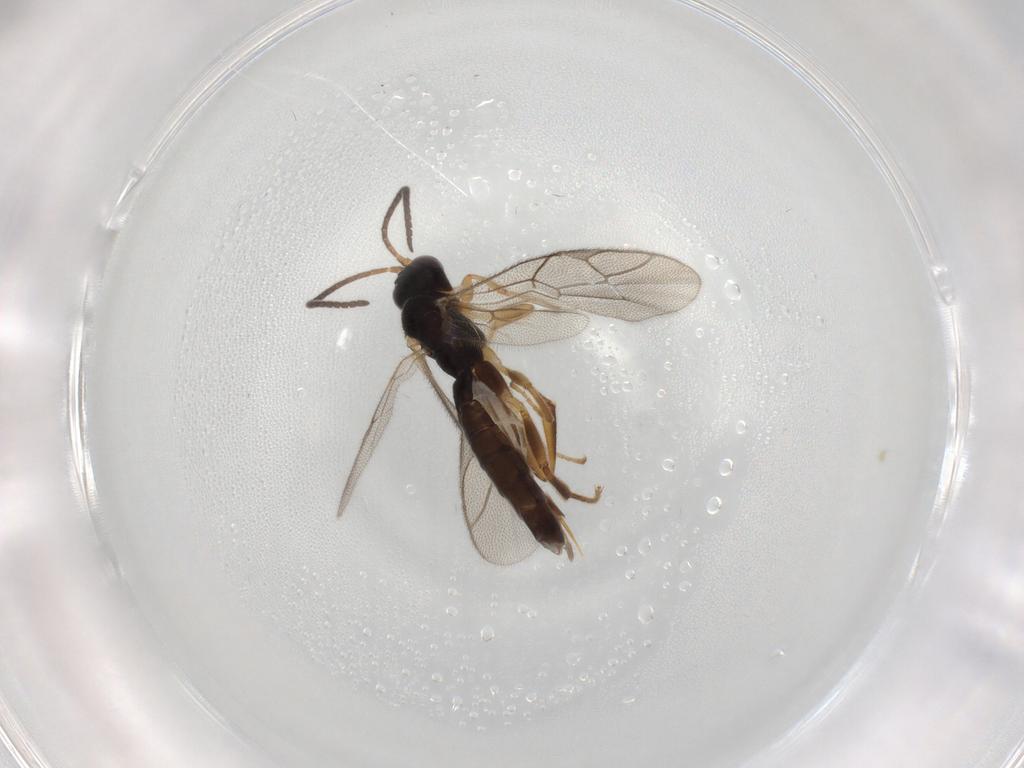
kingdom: Animalia
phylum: Arthropoda
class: Insecta
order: Hymenoptera
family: Ichneumonidae
